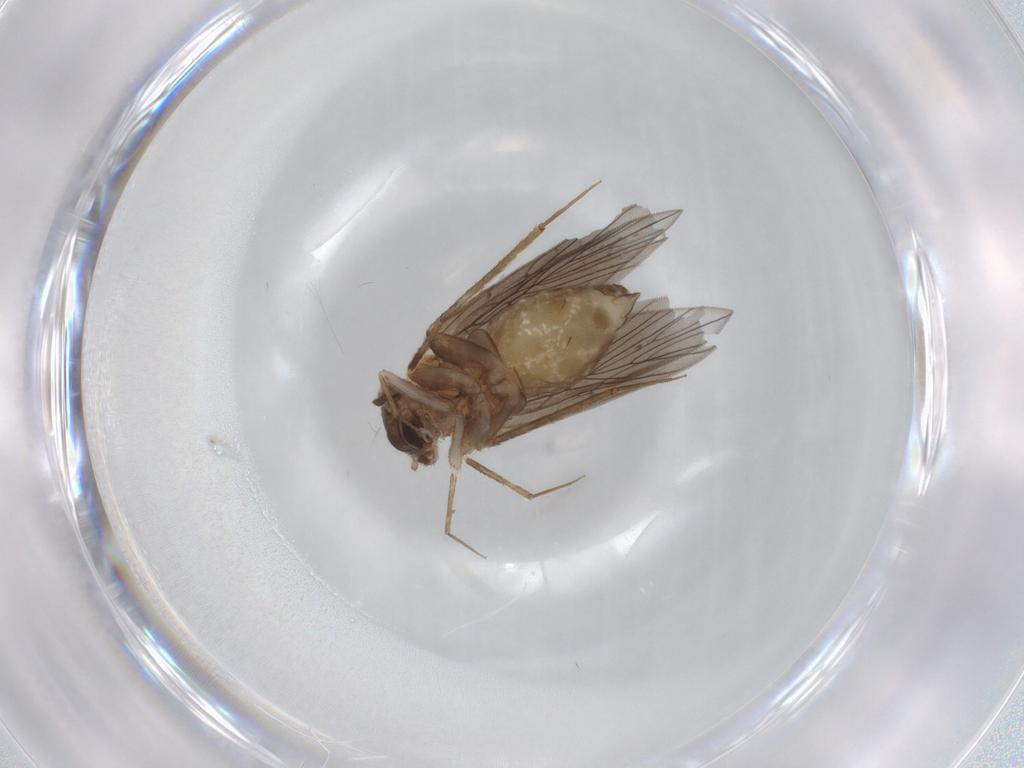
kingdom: Animalia
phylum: Arthropoda
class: Insecta
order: Psocodea
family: Lepidopsocidae
